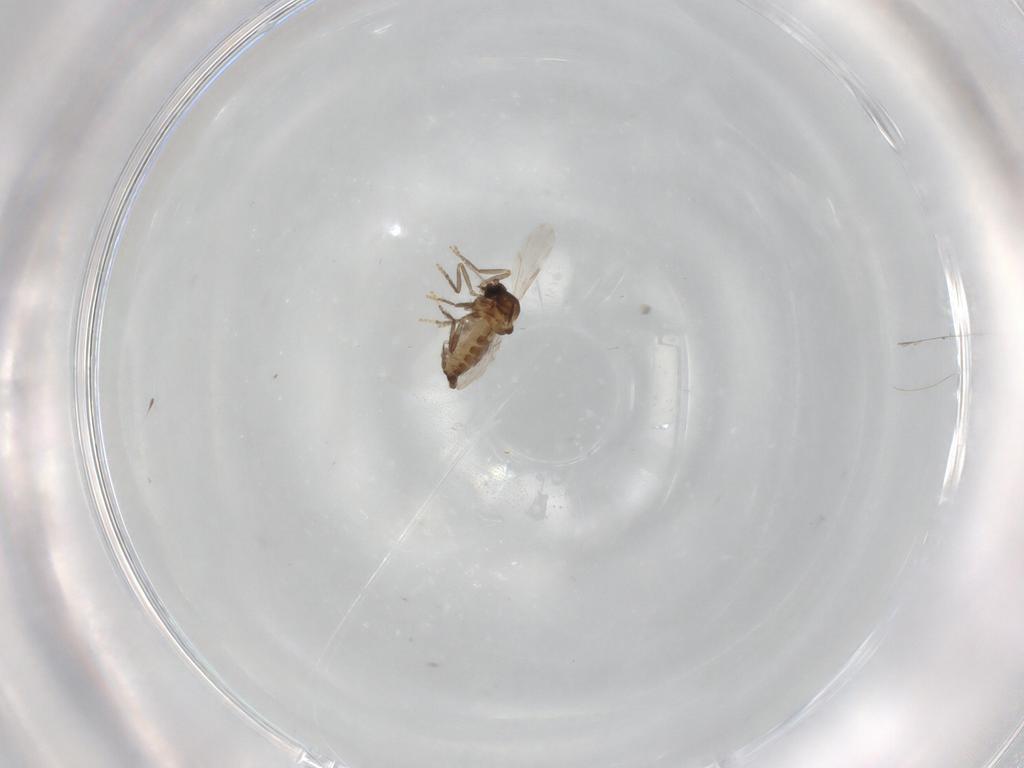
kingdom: Animalia
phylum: Arthropoda
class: Insecta
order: Diptera
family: Ceratopogonidae
